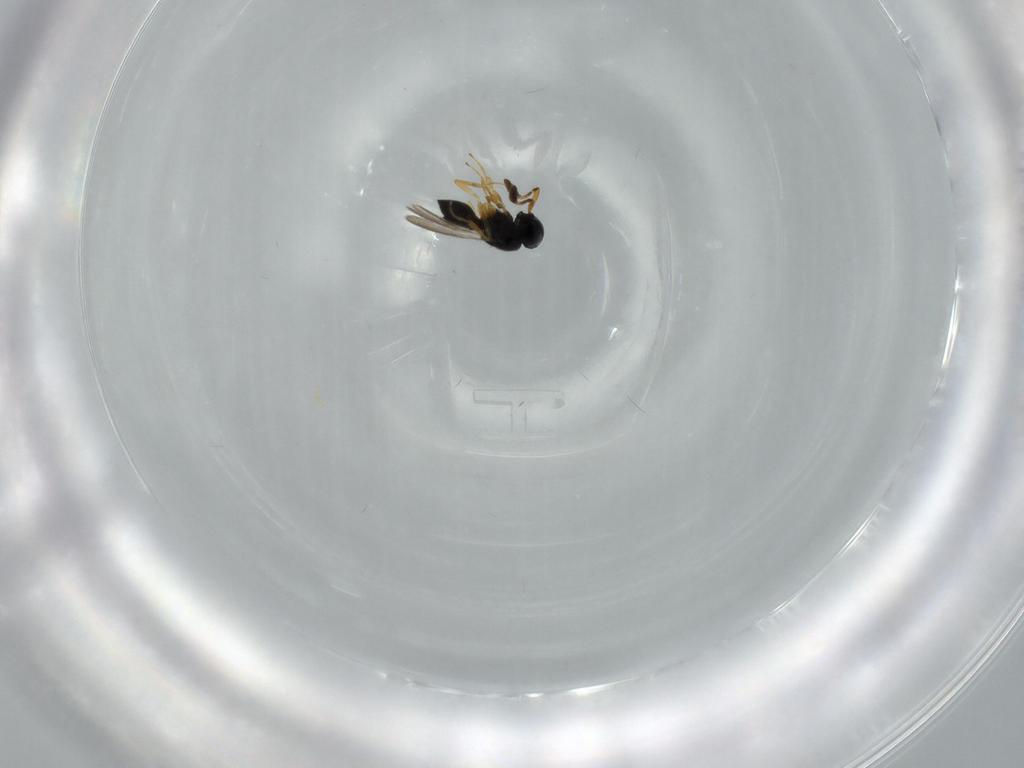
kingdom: Animalia
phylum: Arthropoda
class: Insecta
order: Hymenoptera
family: Scelionidae
